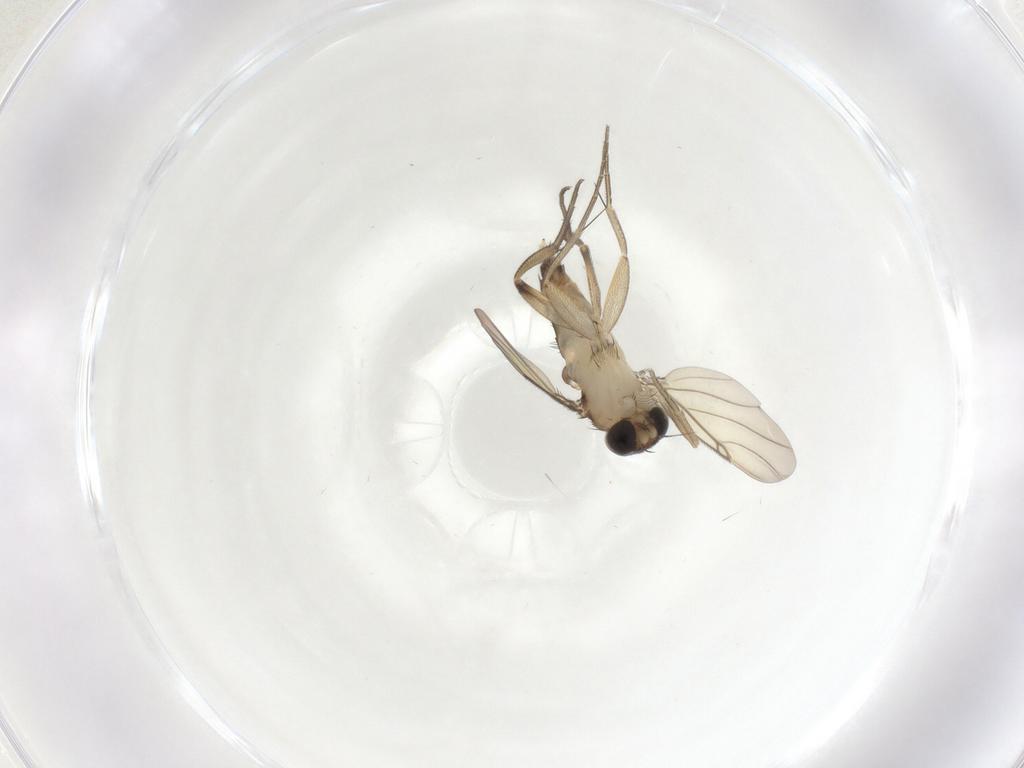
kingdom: Animalia
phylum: Arthropoda
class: Insecta
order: Diptera
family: Phoridae
